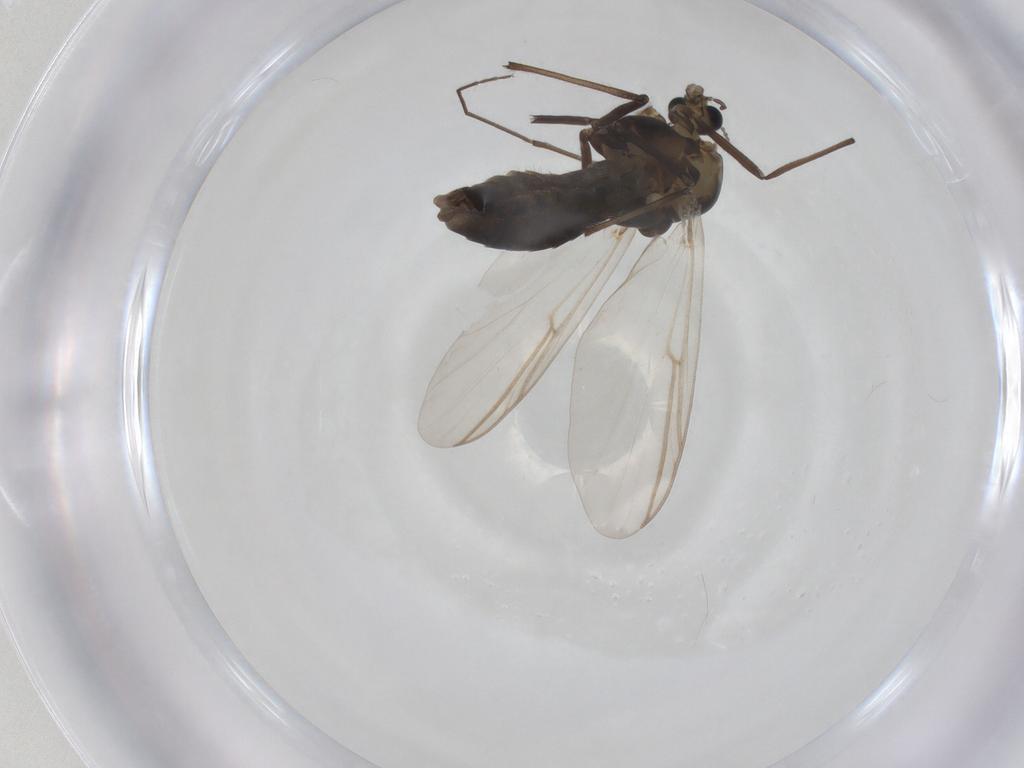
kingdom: Animalia
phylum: Arthropoda
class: Insecta
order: Diptera
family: Chironomidae
